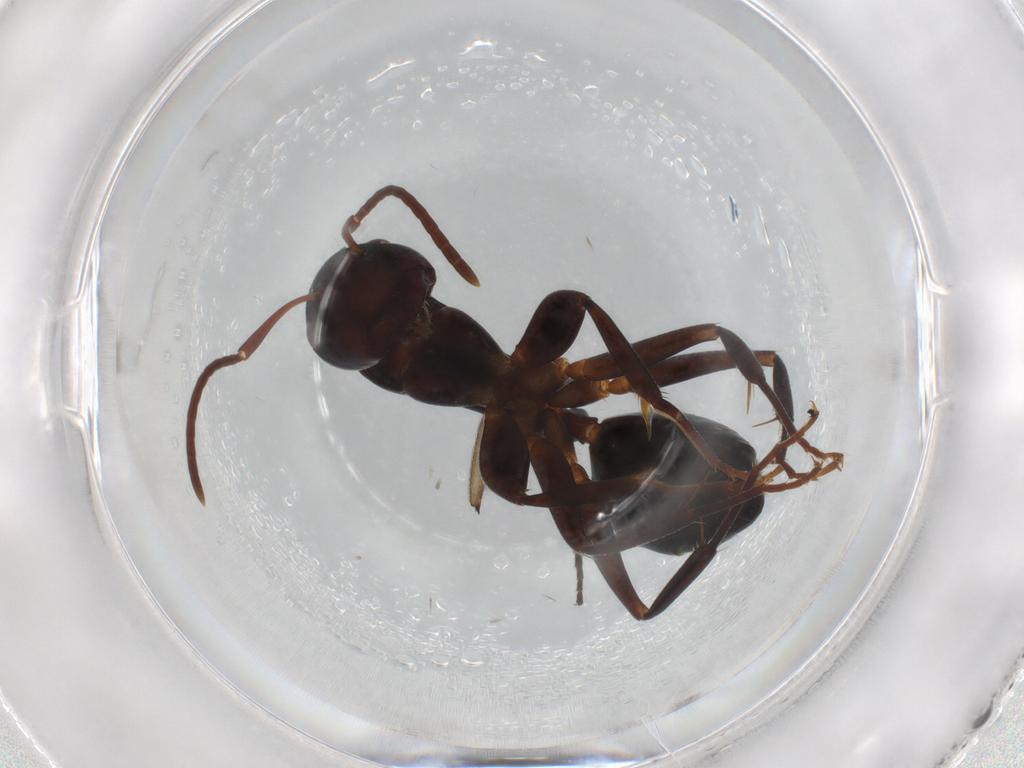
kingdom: Animalia
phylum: Arthropoda
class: Insecta
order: Hymenoptera
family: Formicidae
